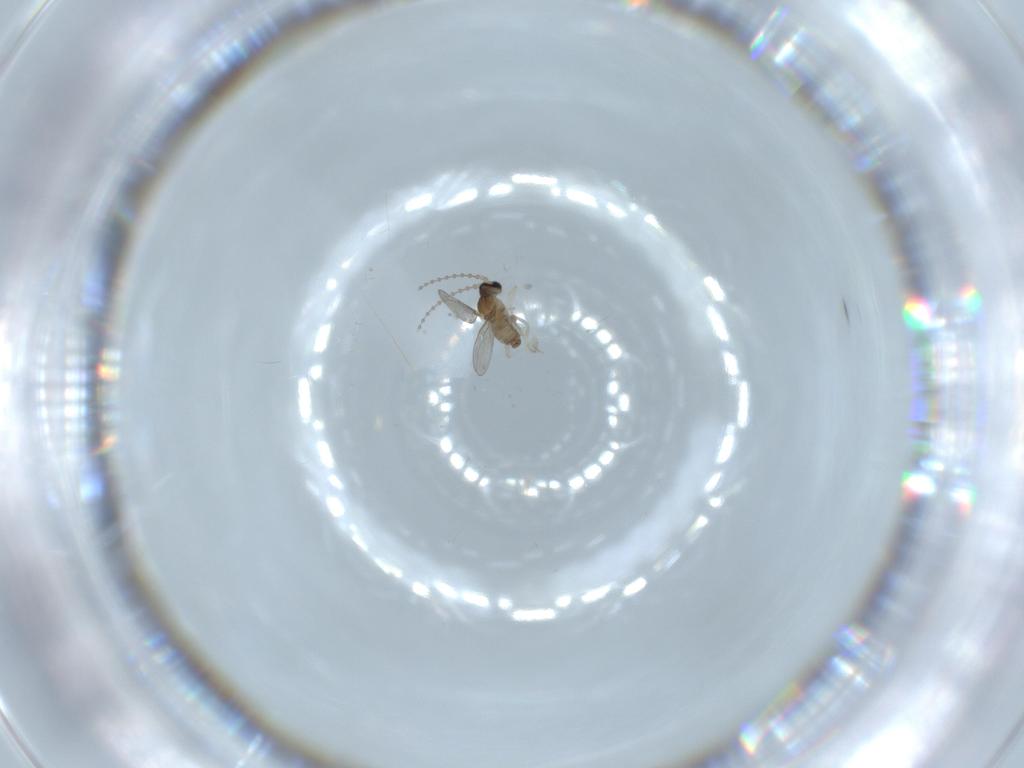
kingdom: Animalia
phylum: Arthropoda
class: Insecta
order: Diptera
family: Cecidomyiidae
